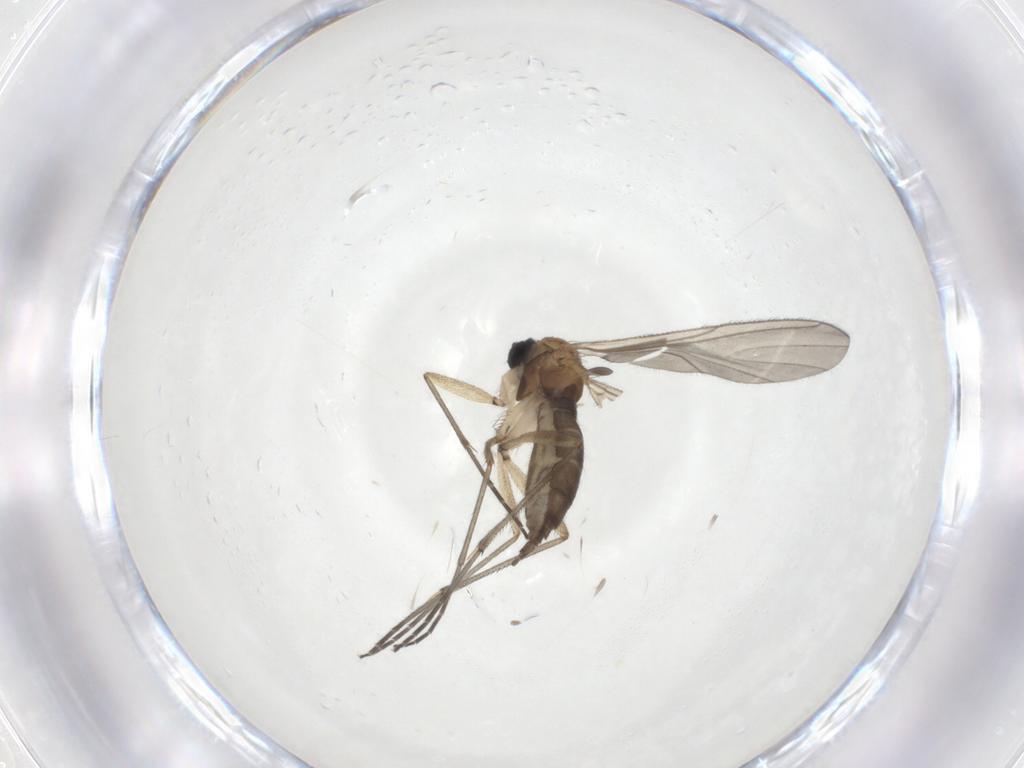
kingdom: Animalia
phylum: Arthropoda
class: Insecta
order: Diptera
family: Sciaridae
